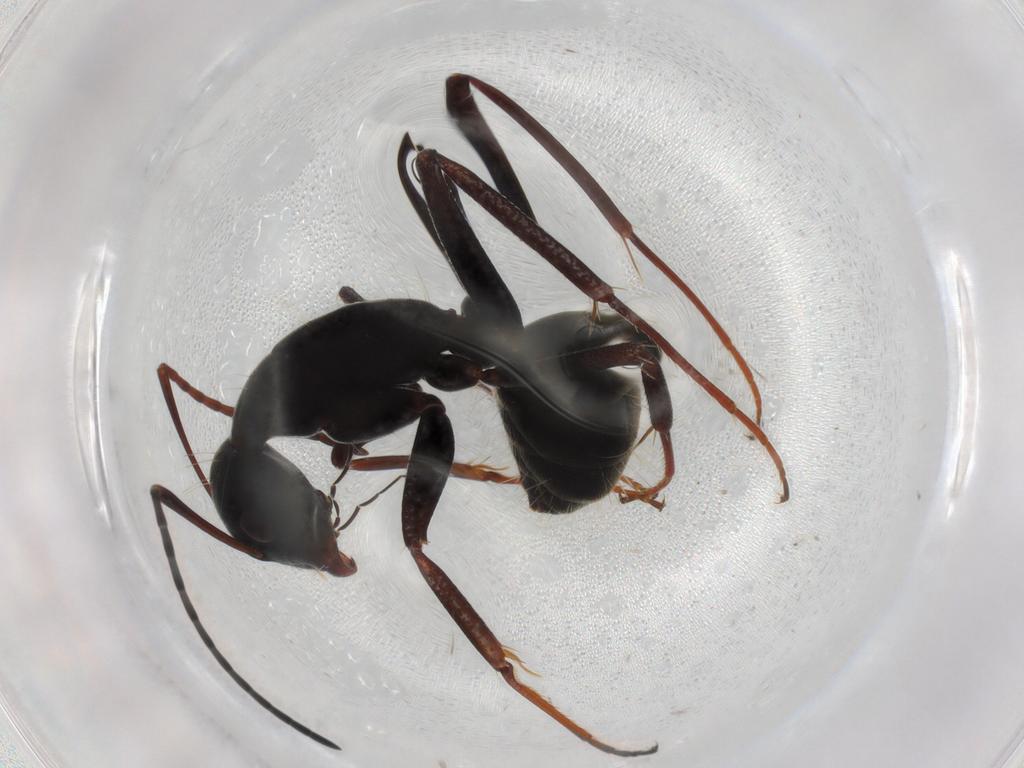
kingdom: Animalia
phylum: Arthropoda
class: Insecta
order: Hymenoptera
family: Formicidae
